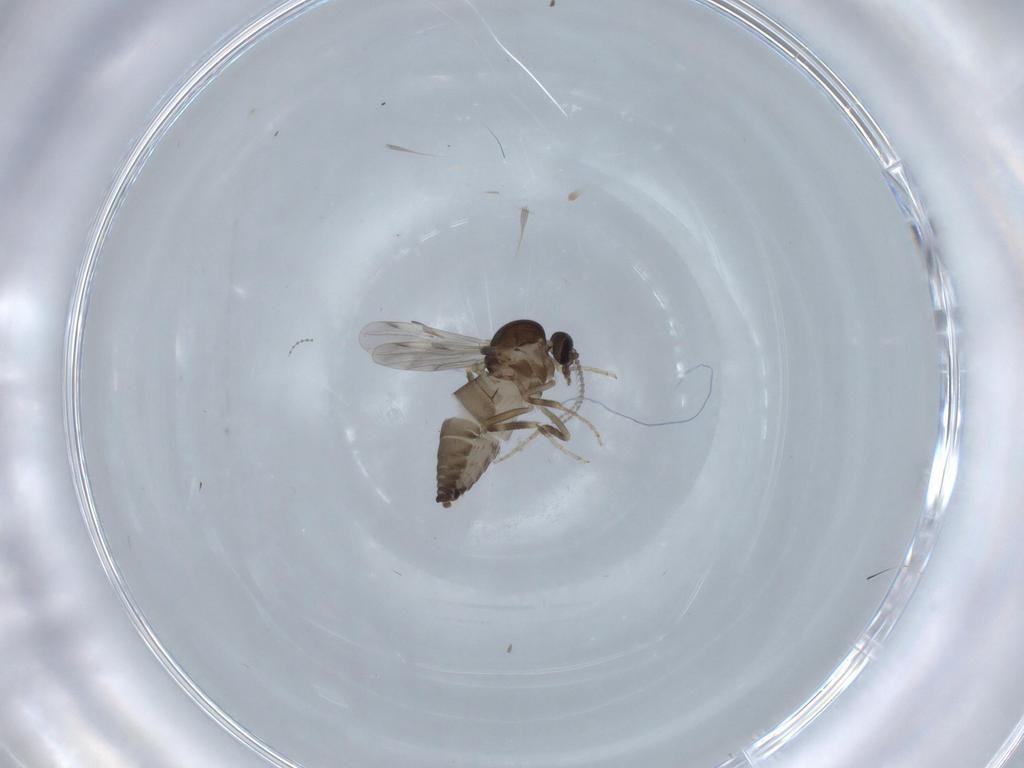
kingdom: Animalia
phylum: Arthropoda
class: Insecta
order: Diptera
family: Ceratopogonidae
